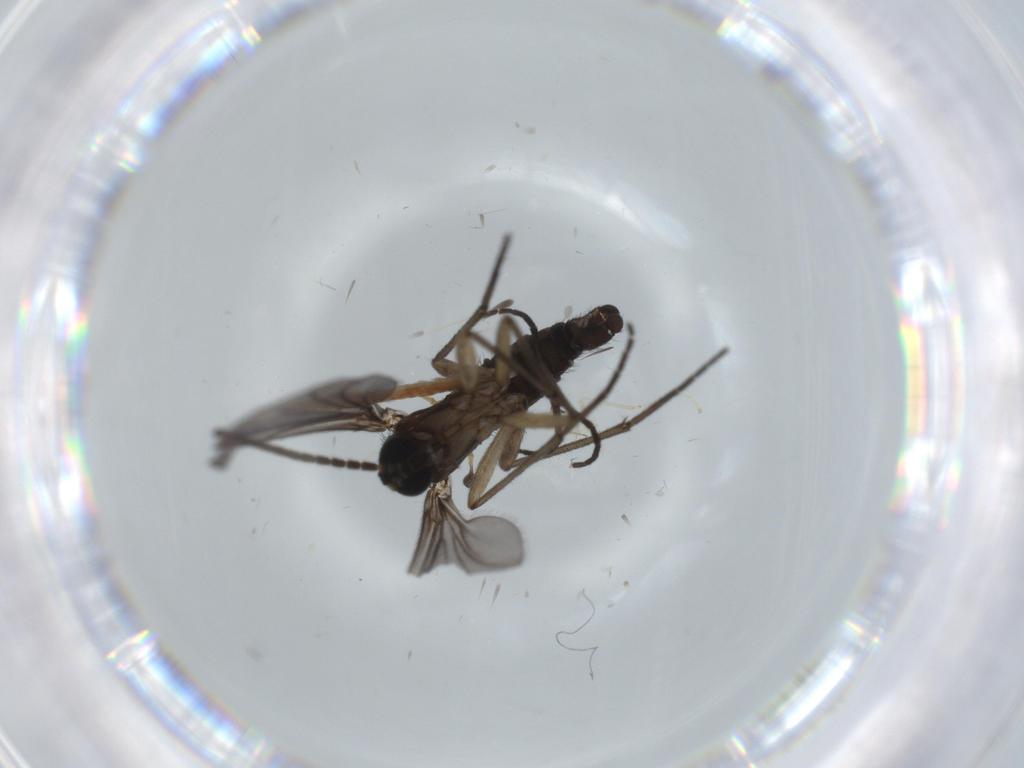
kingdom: Animalia
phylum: Arthropoda
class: Insecta
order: Diptera
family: Sciaridae
